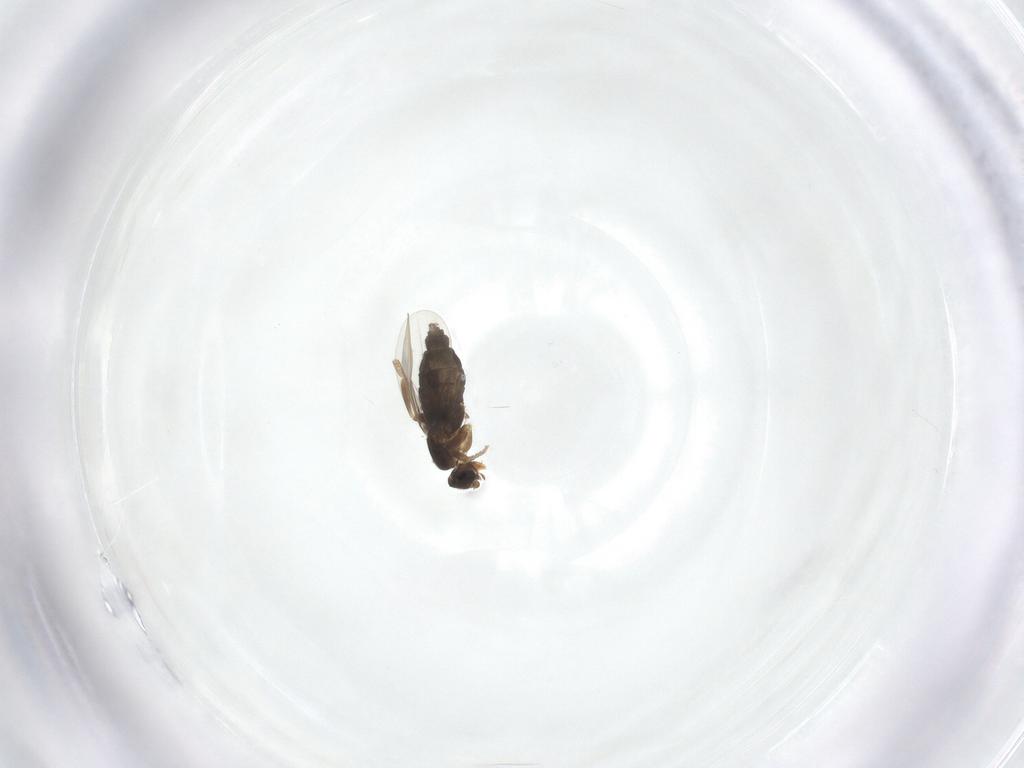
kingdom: Animalia
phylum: Arthropoda
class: Insecta
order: Diptera
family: Phoridae
